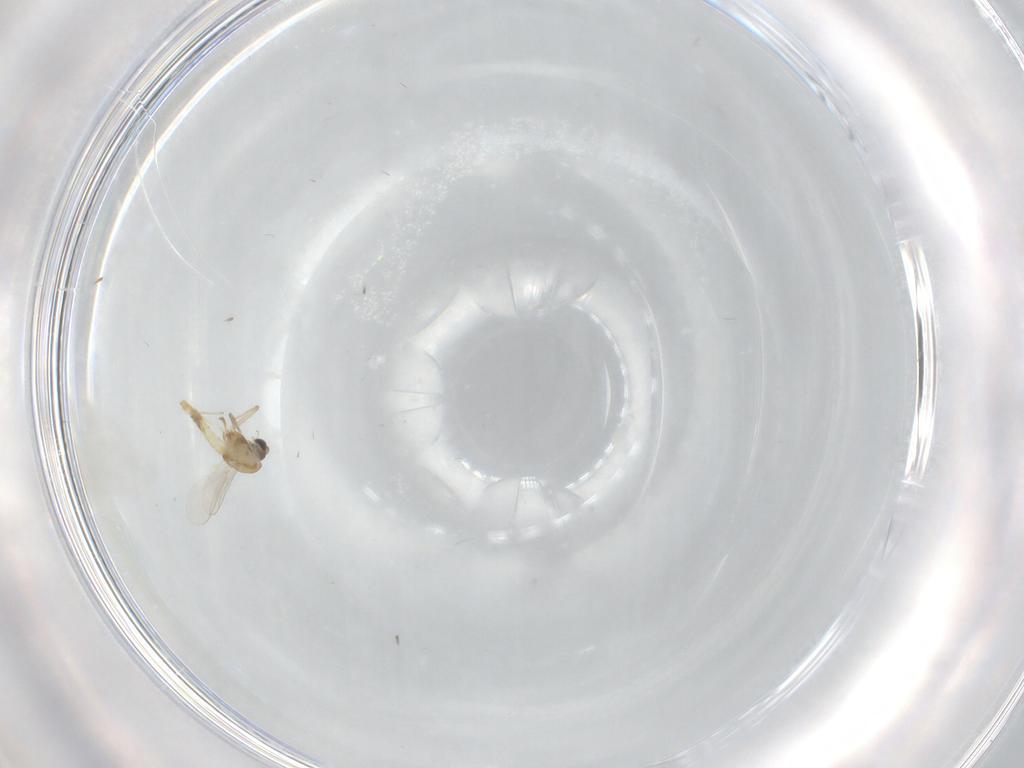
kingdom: Animalia
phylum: Arthropoda
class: Insecta
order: Diptera
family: Chironomidae
